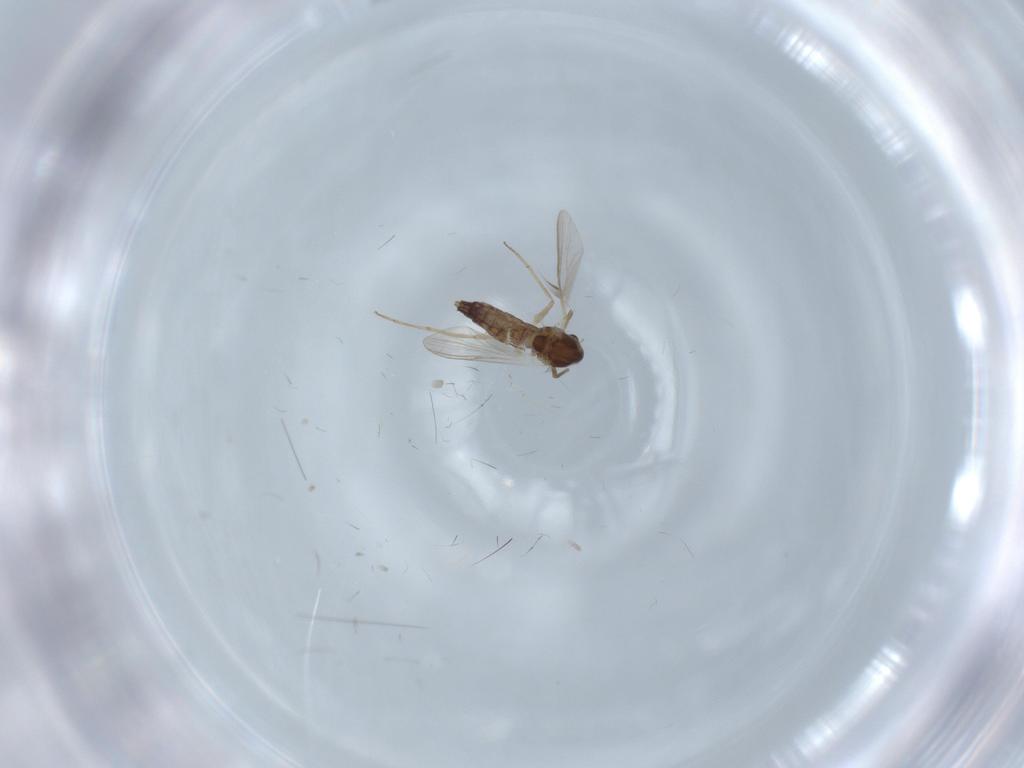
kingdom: Animalia
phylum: Arthropoda
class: Insecta
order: Diptera
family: Chironomidae
